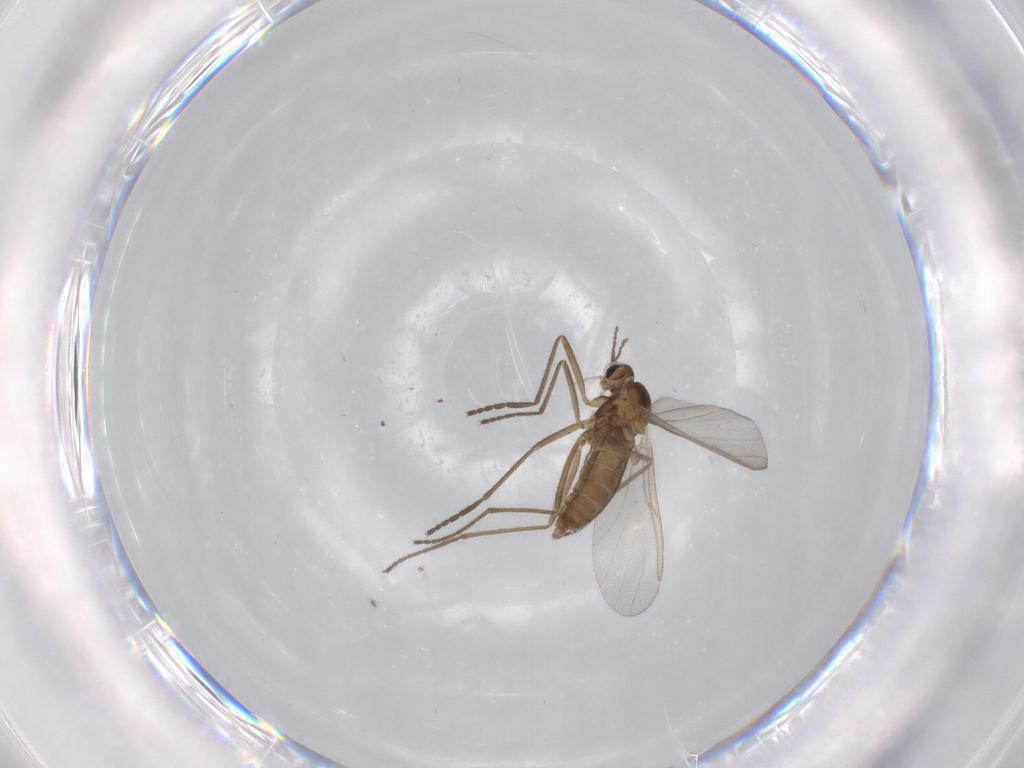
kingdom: Animalia
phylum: Arthropoda
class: Insecta
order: Diptera
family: Cecidomyiidae
